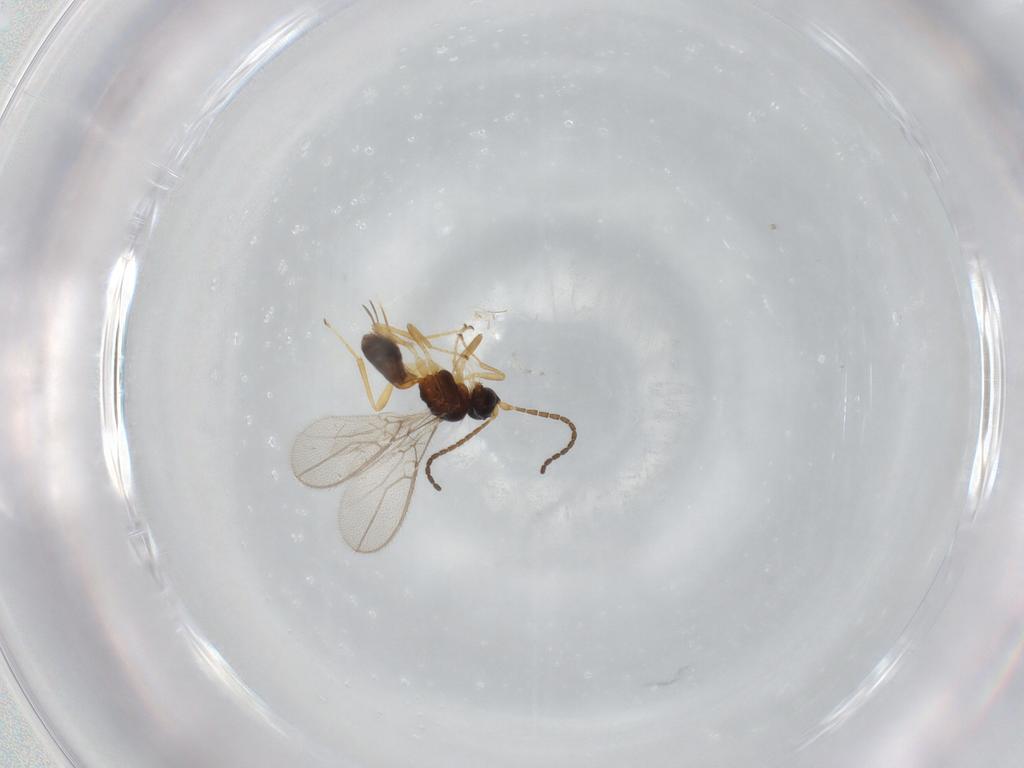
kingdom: Animalia
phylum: Arthropoda
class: Insecta
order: Hymenoptera
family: Braconidae
